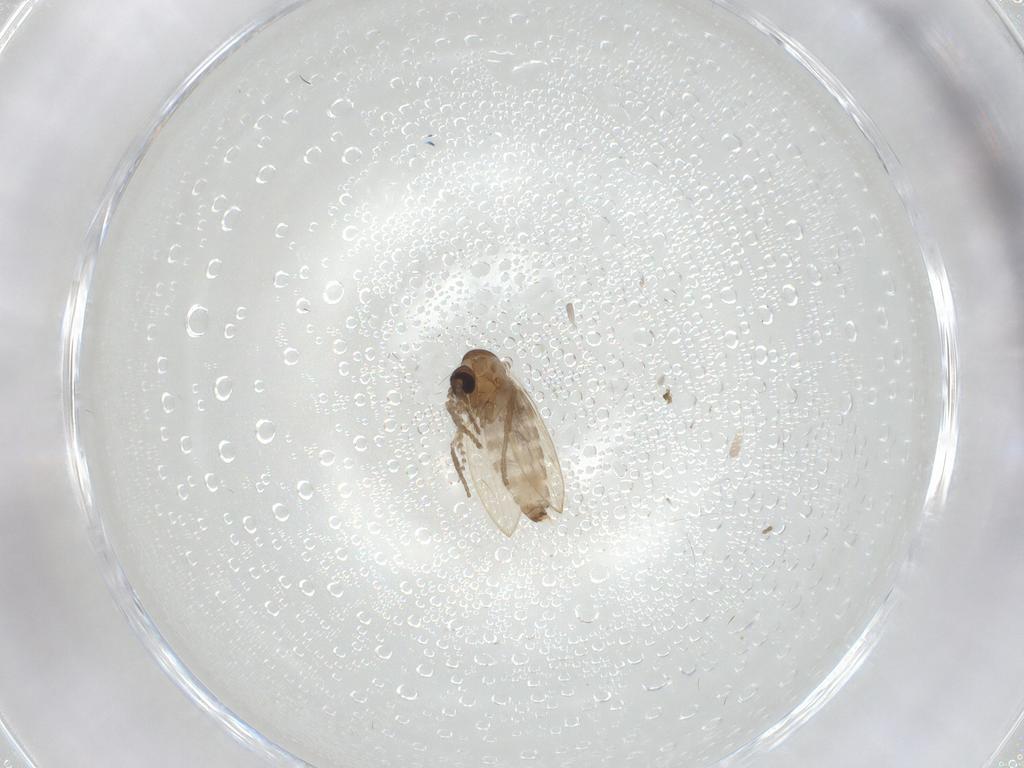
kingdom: Animalia
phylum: Arthropoda
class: Insecta
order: Diptera
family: Psychodidae
